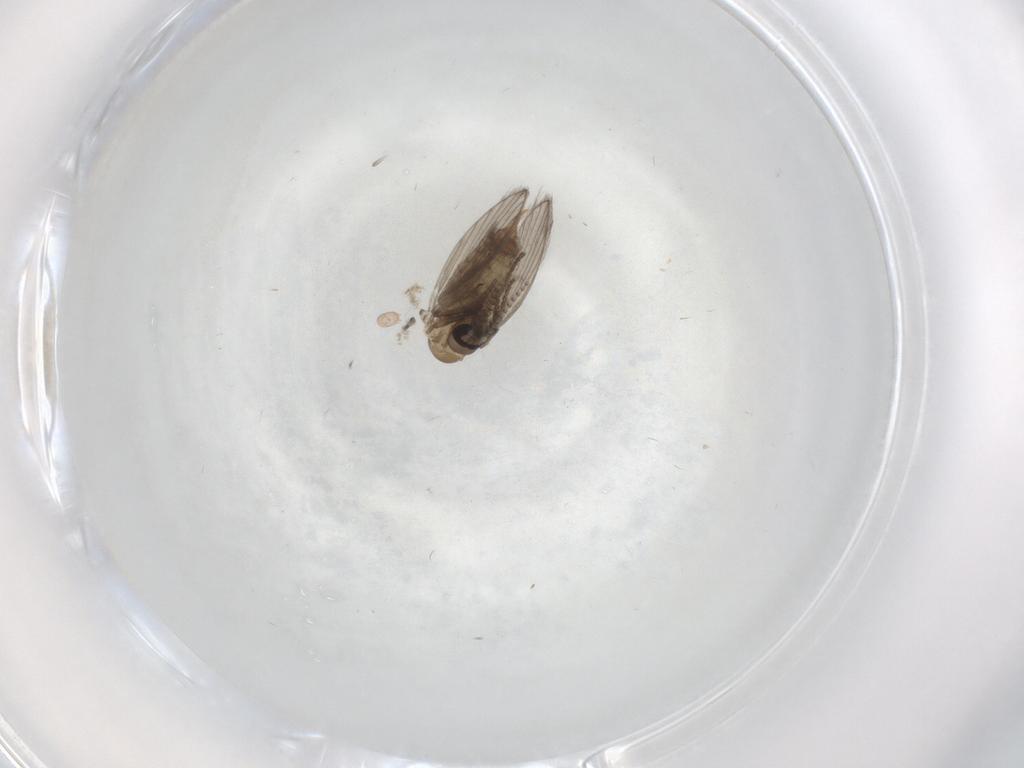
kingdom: Animalia
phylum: Arthropoda
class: Insecta
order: Diptera
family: Psychodidae
